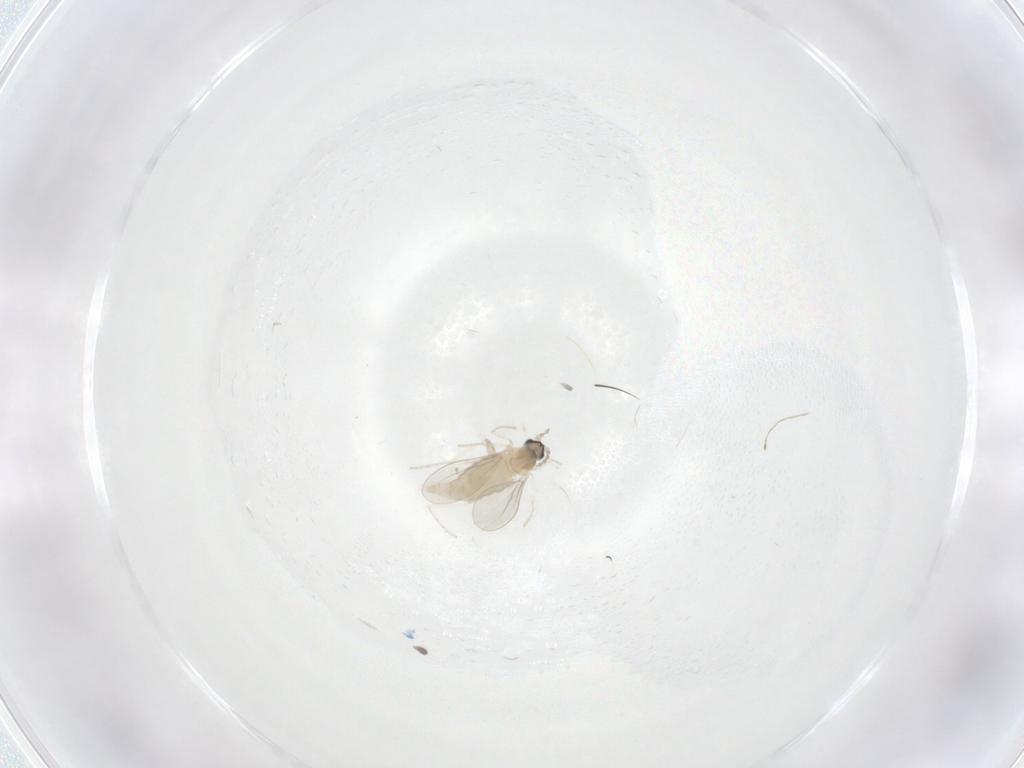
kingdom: Animalia
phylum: Arthropoda
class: Insecta
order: Diptera
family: Cecidomyiidae
